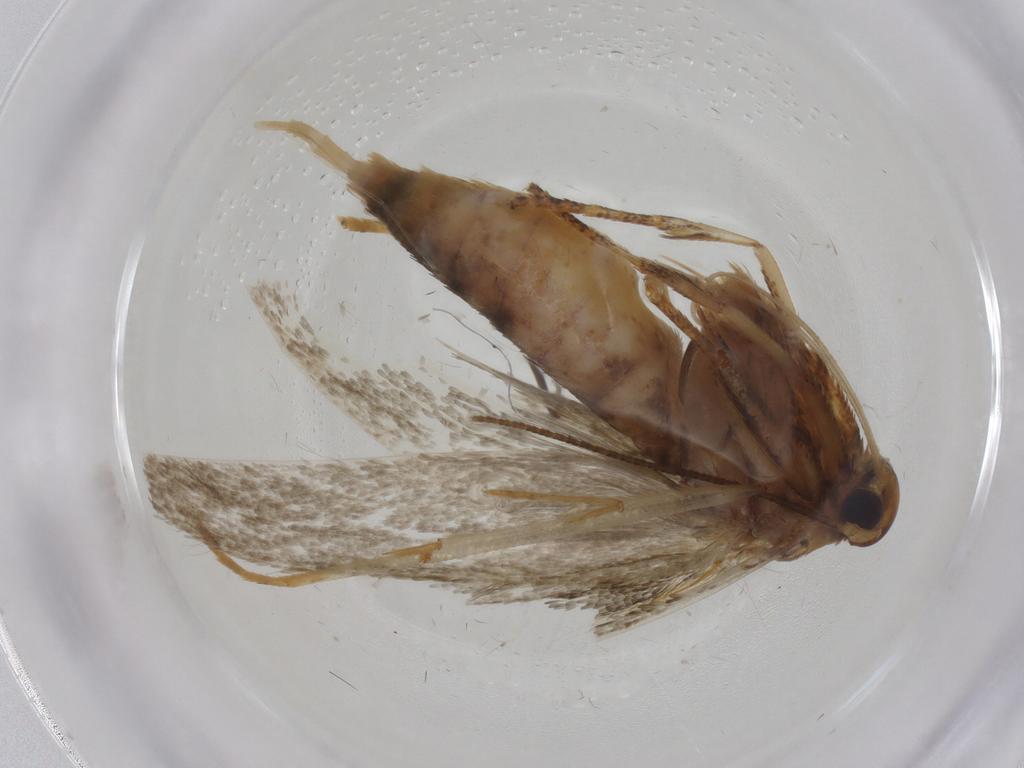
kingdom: Animalia
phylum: Arthropoda
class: Insecta
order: Lepidoptera
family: Blastobasidae
